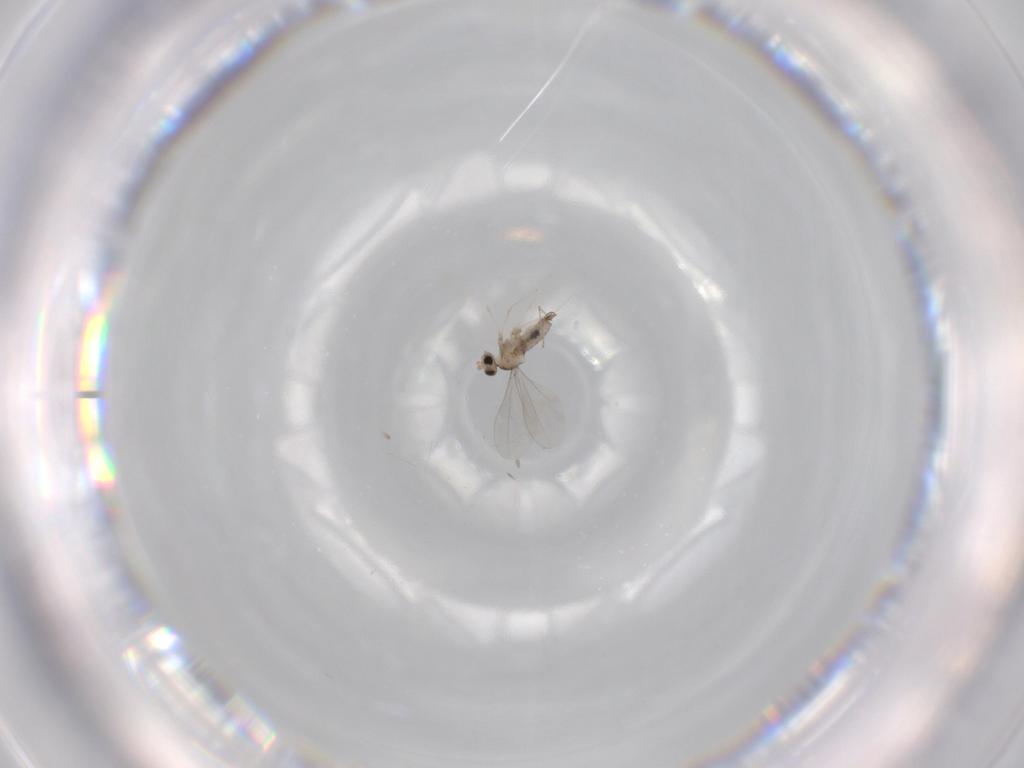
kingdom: Animalia
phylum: Arthropoda
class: Insecta
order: Diptera
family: Cecidomyiidae
